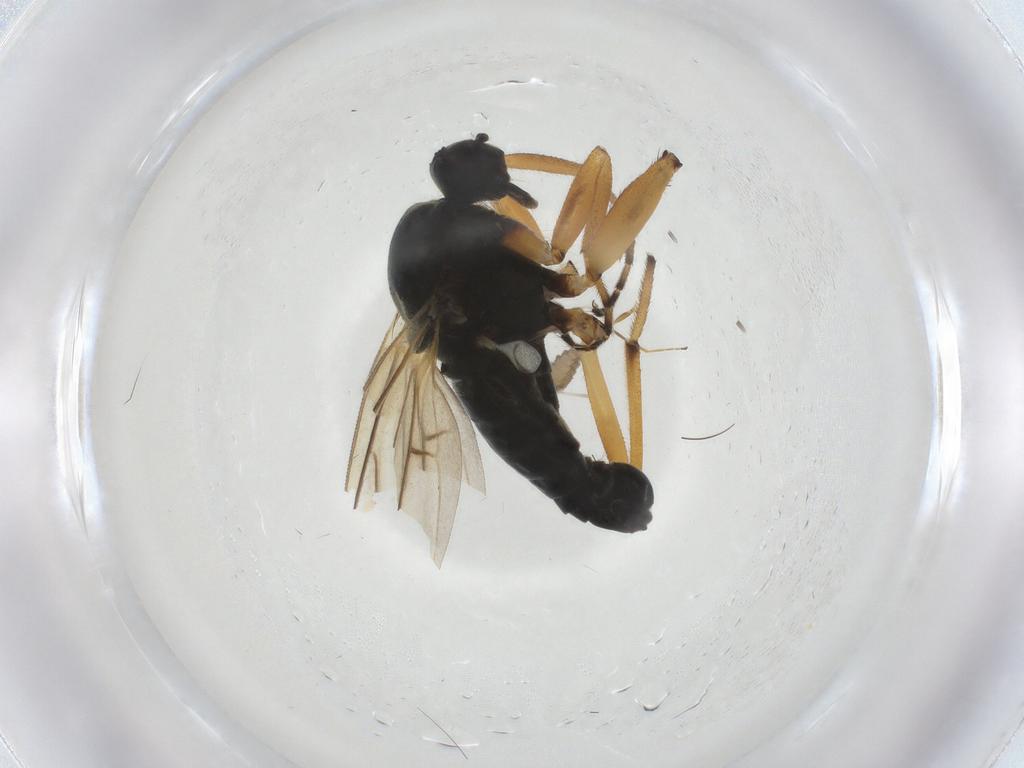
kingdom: Animalia
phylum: Arthropoda
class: Insecta
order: Diptera
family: Hybotidae
